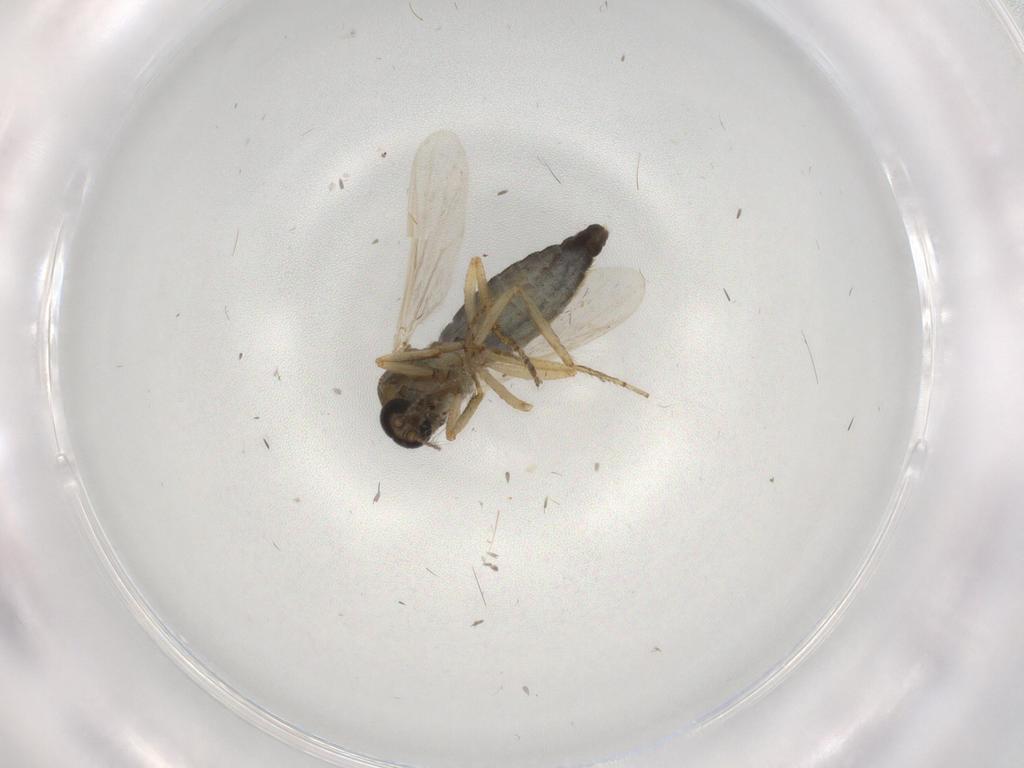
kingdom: Animalia
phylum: Arthropoda
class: Insecta
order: Diptera
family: Ceratopogonidae
